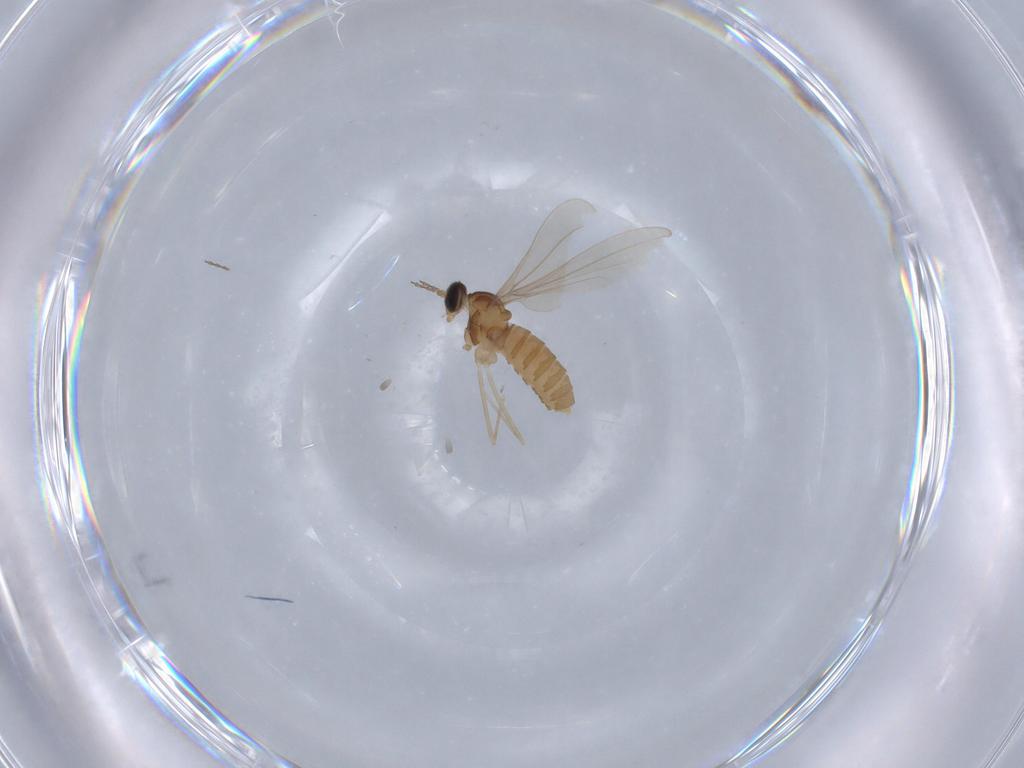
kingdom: Animalia
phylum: Arthropoda
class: Insecta
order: Diptera
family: Cecidomyiidae
